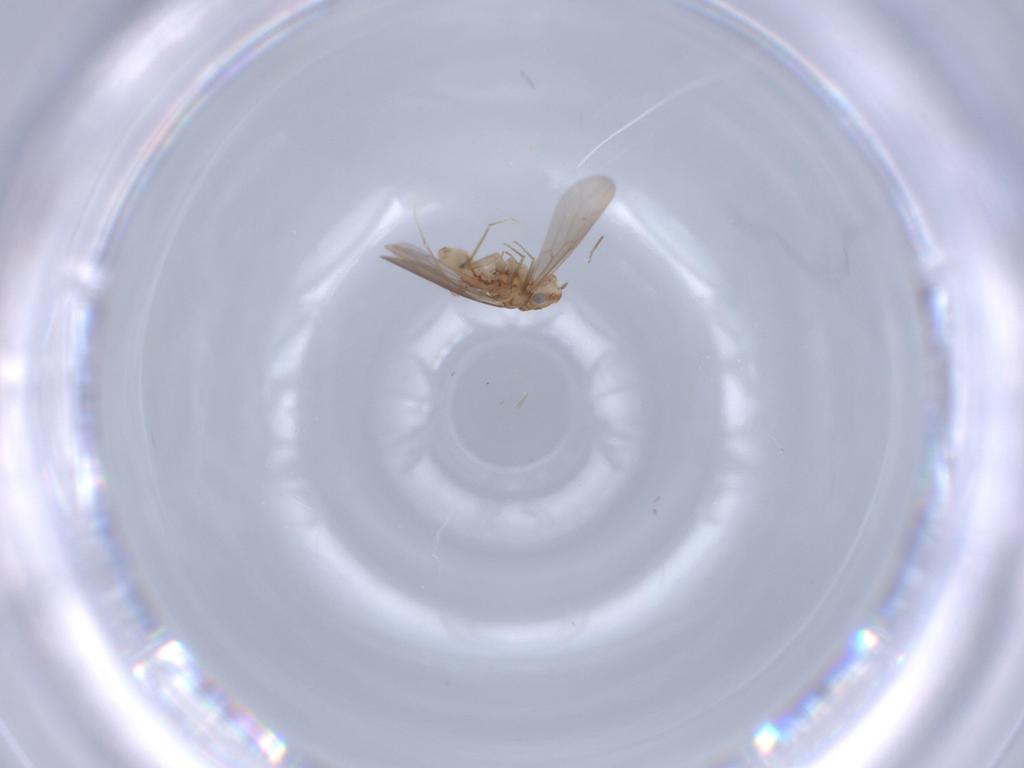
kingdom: Animalia
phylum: Arthropoda
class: Insecta
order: Psocodea
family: Lepidopsocidae
